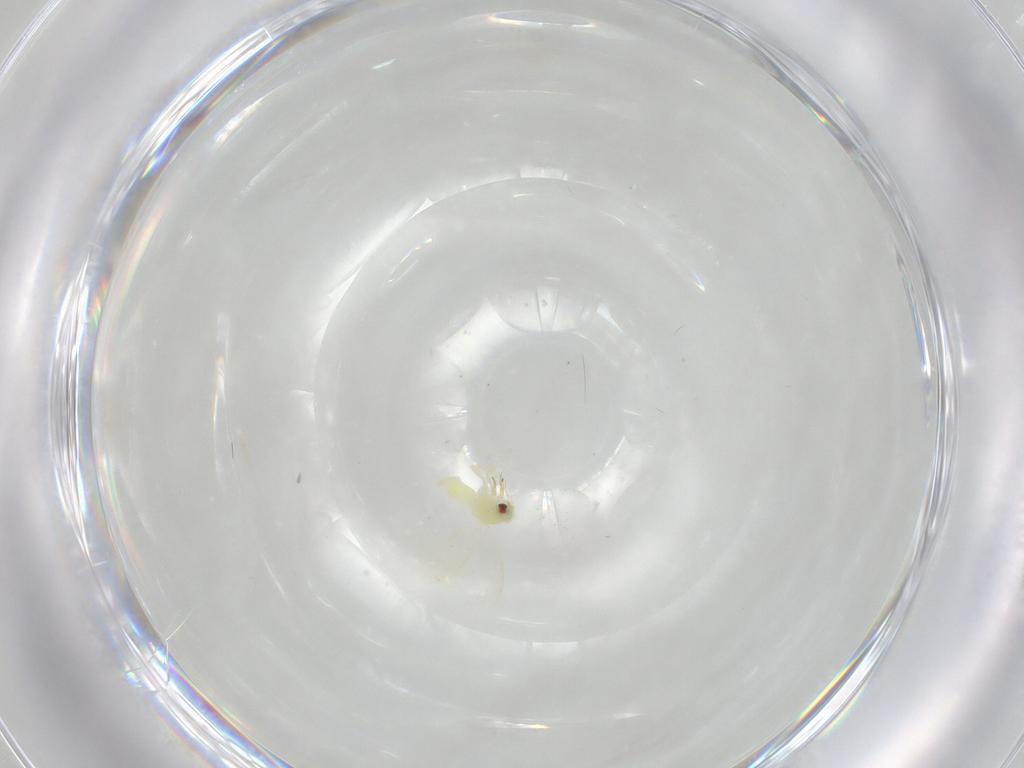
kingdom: Animalia
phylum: Arthropoda
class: Insecta
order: Hemiptera
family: Aleyrodidae
